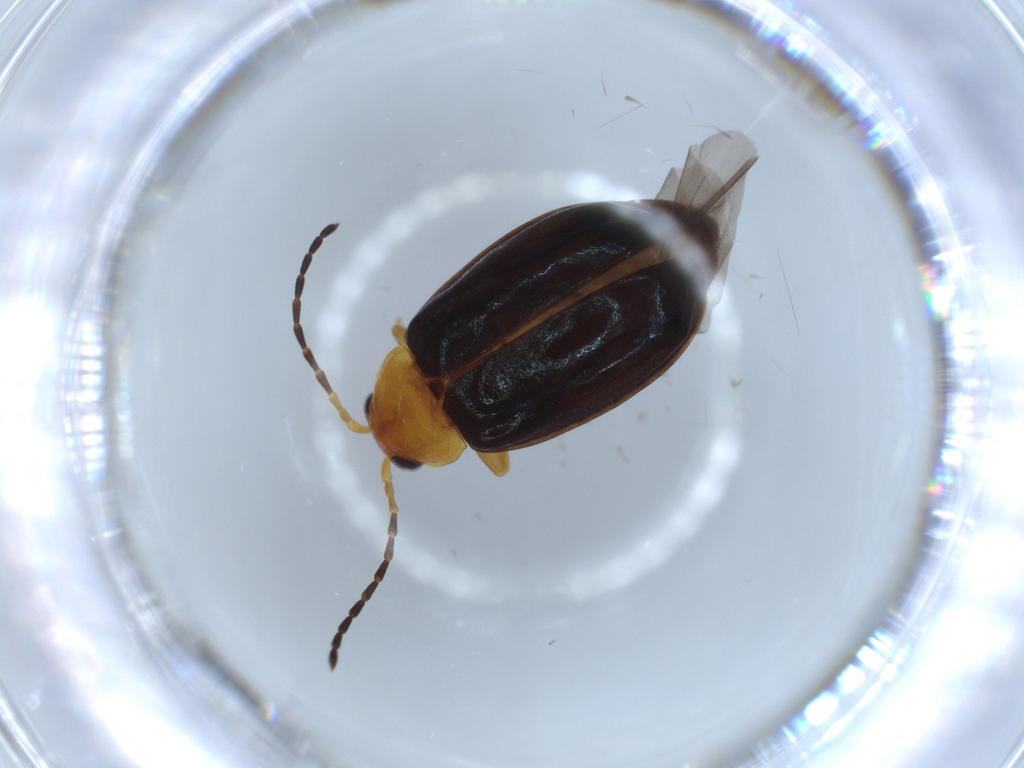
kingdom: Animalia
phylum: Arthropoda
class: Insecta
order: Coleoptera
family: Chrysomelidae
